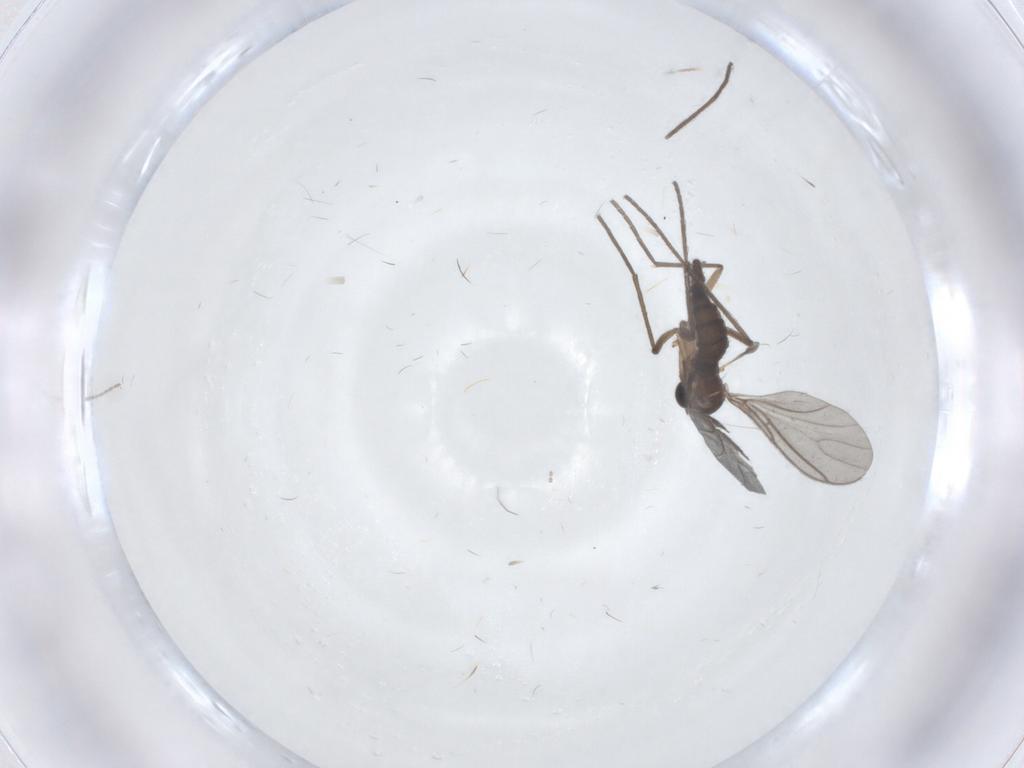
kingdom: Animalia
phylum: Arthropoda
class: Insecta
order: Diptera
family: Sciaridae
